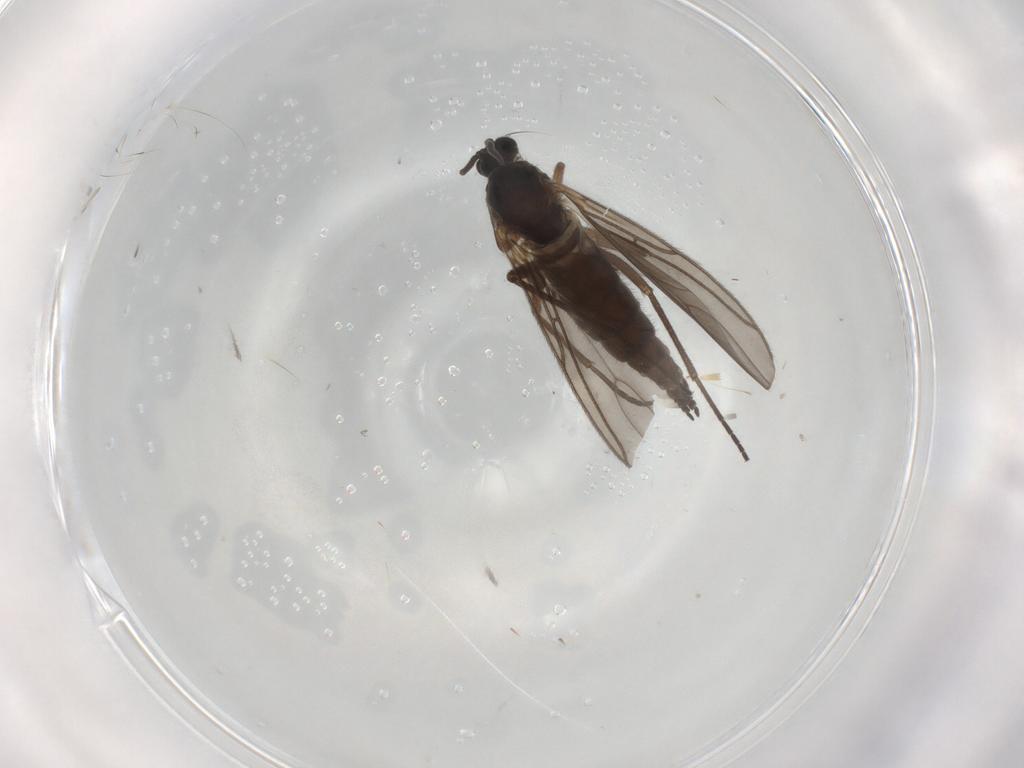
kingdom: Animalia
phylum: Arthropoda
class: Insecta
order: Diptera
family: Sciaridae
